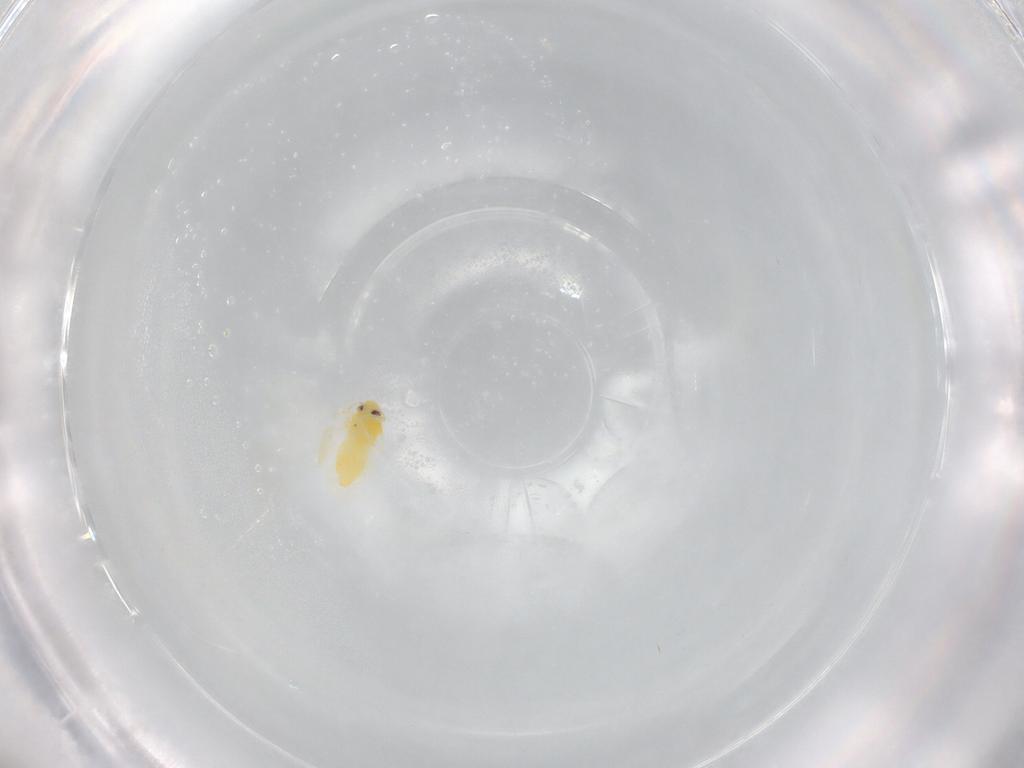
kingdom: Animalia
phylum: Arthropoda
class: Insecta
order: Hemiptera
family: Aleyrodidae
